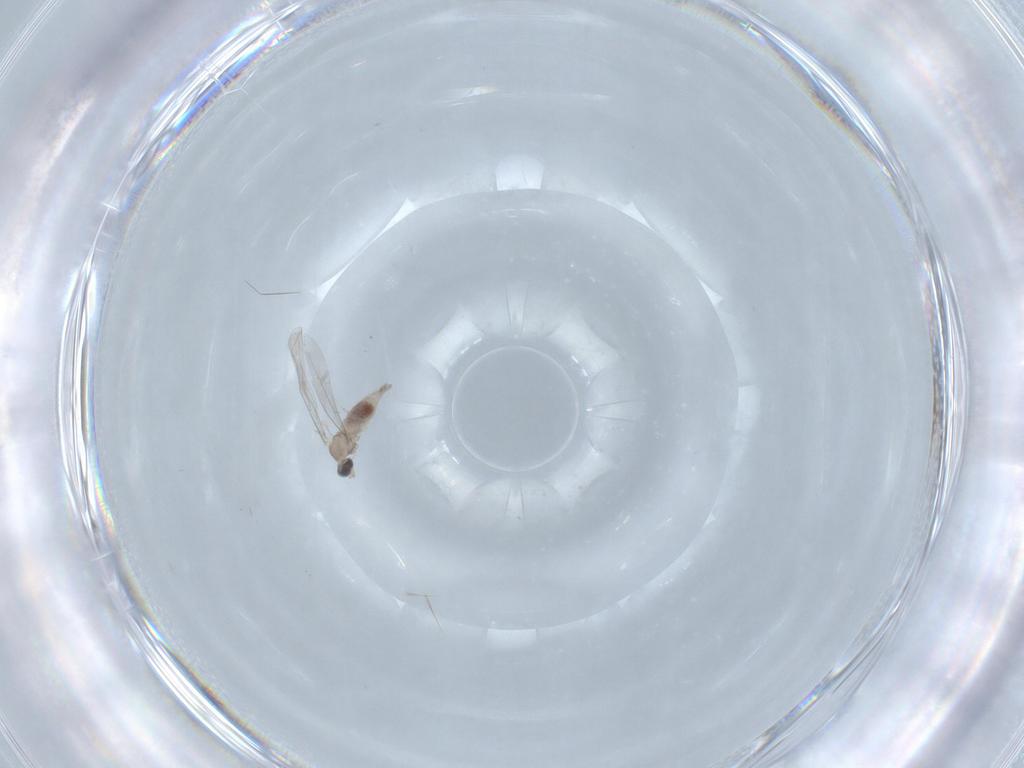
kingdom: Animalia
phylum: Arthropoda
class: Insecta
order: Diptera
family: Cecidomyiidae
